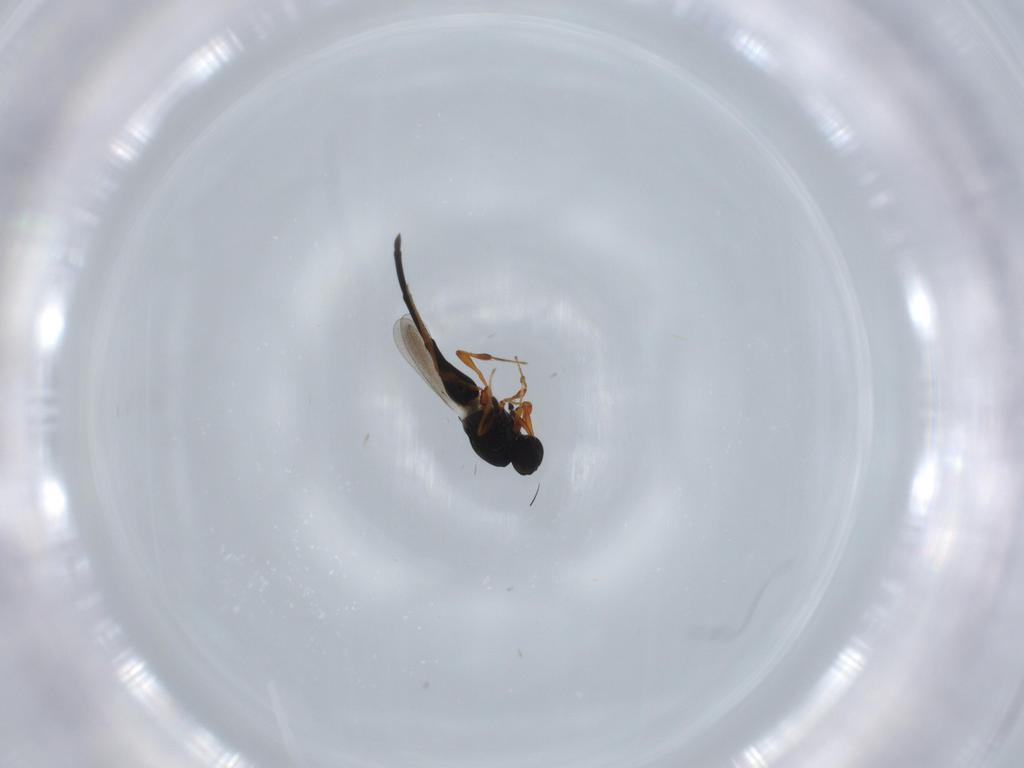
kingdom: Animalia
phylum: Arthropoda
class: Insecta
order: Hymenoptera
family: Platygastridae
